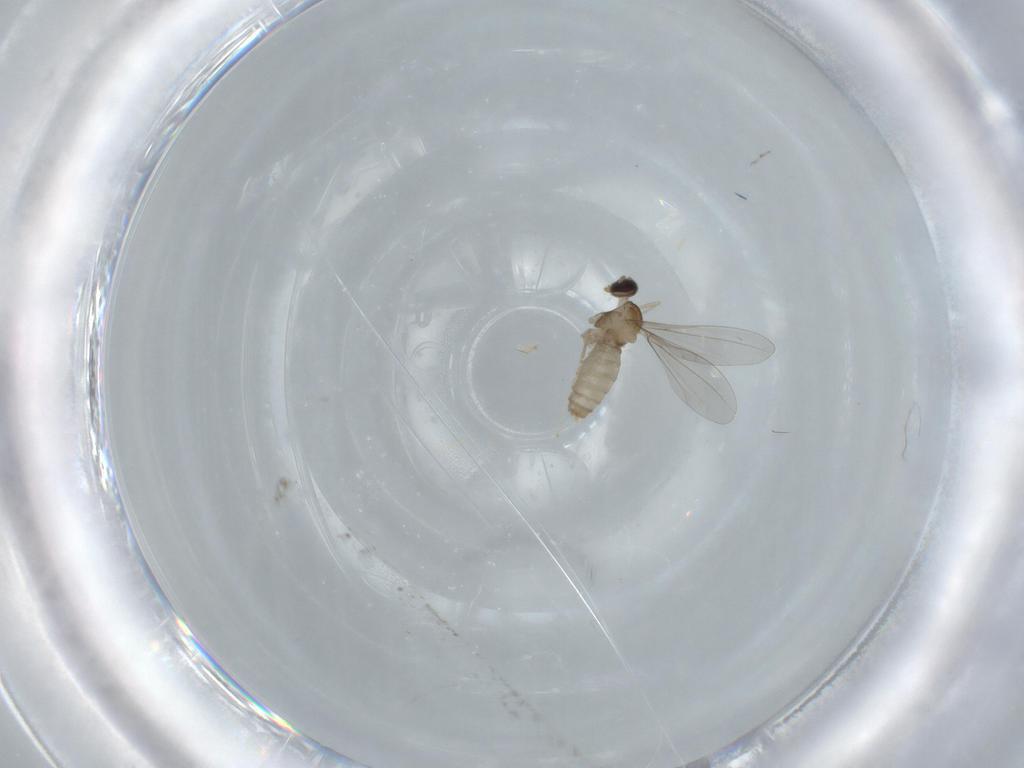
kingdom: Animalia
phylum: Arthropoda
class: Insecta
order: Diptera
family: Cecidomyiidae
